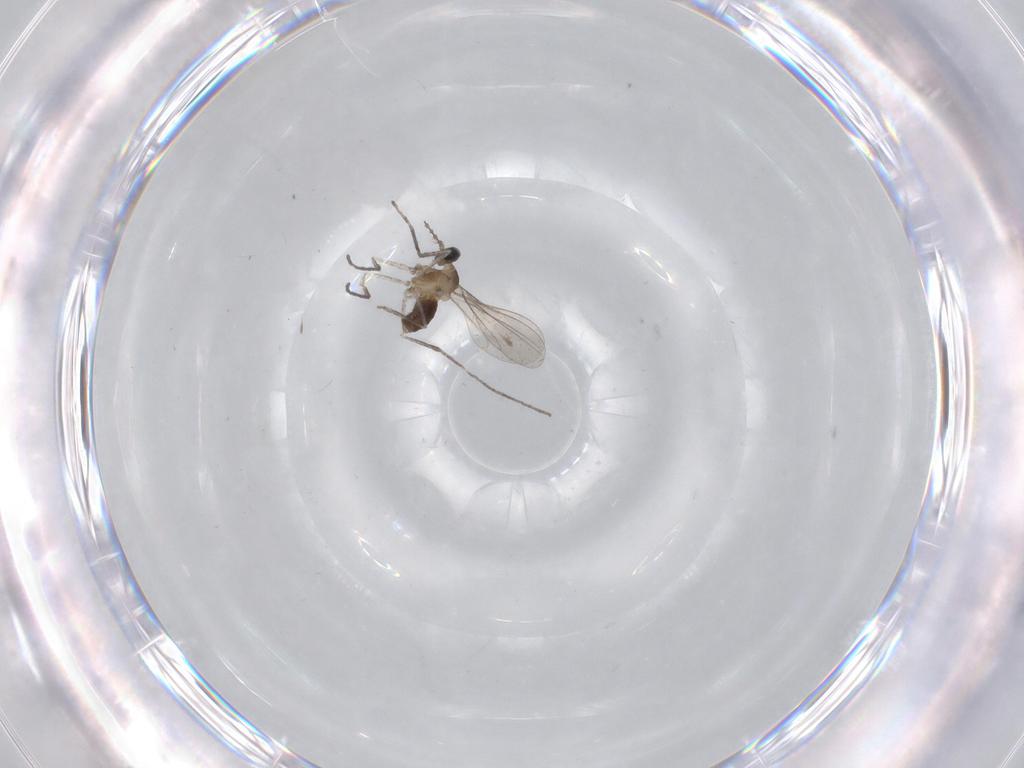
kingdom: Animalia
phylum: Arthropoda
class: Insecta
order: Diptera
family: Cecidomyiidae
